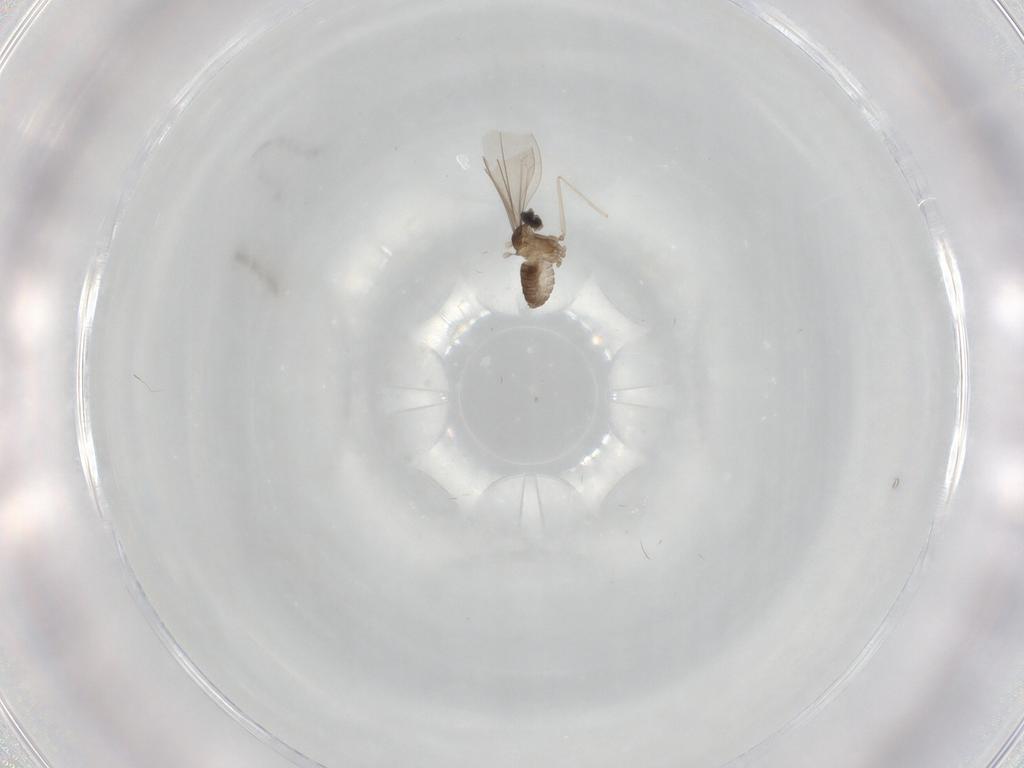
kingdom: Animalia
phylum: Arthropoda
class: Insecta
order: Diptera
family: Cecidomyiidae
